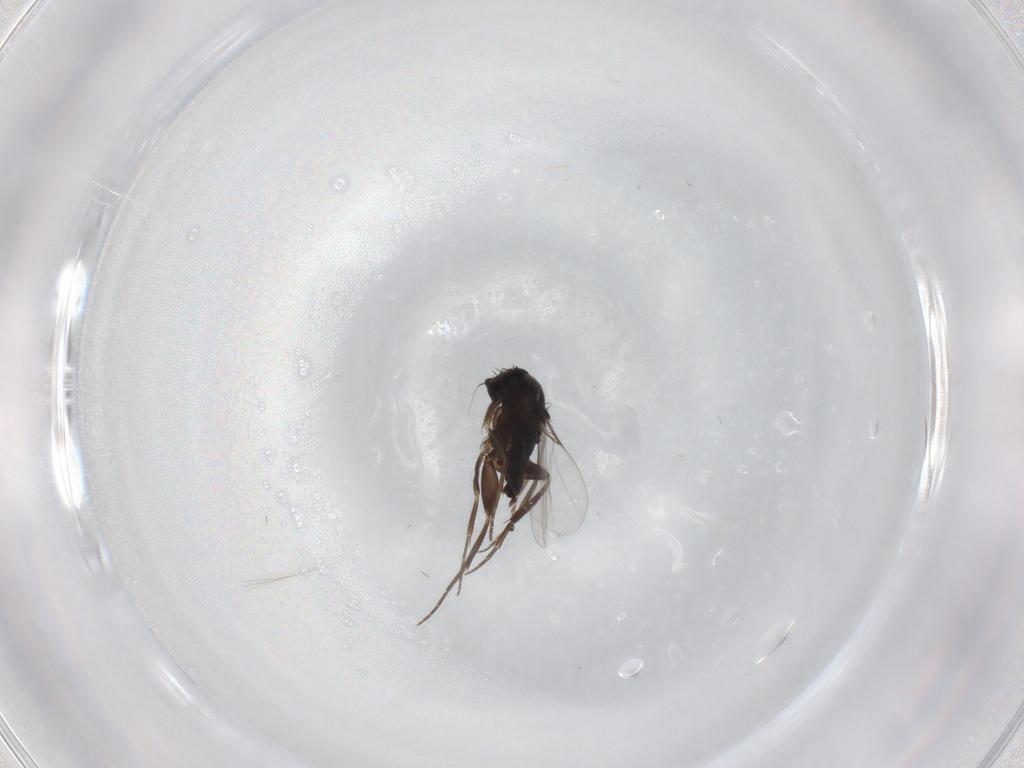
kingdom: Animalia
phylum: Arthropoda
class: Insecta
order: Diptera
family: Phoridae
